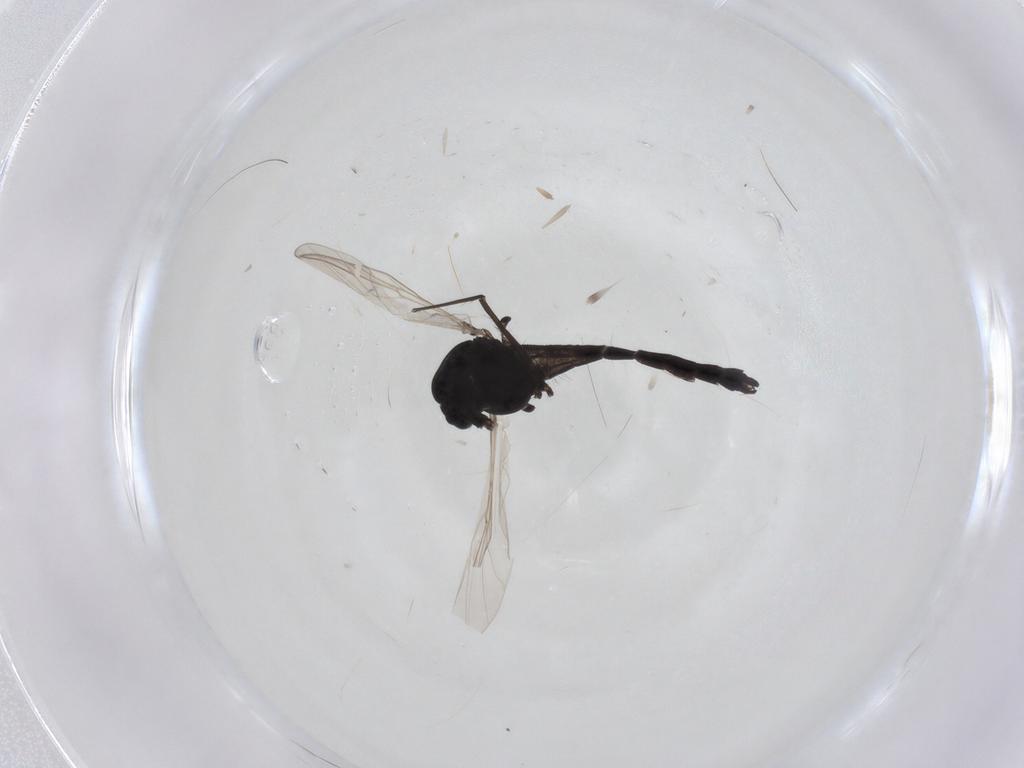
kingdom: Animalia
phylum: Arthropoda
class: Insecta
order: Diptera
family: Chironomidae
